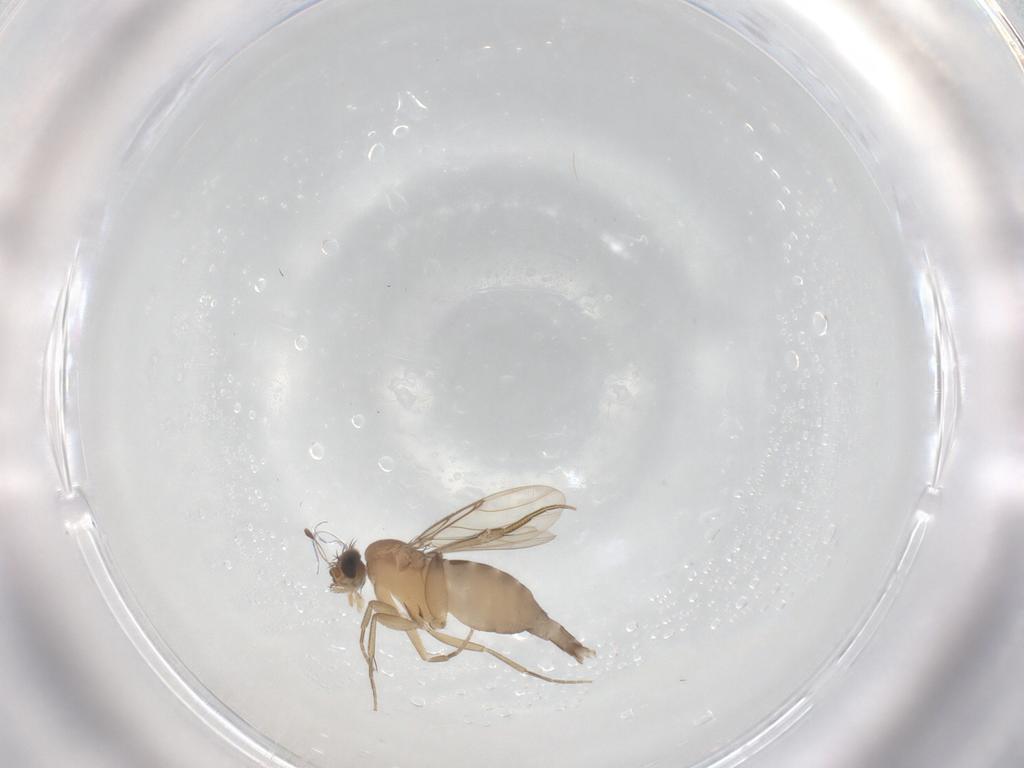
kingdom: Animalia
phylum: Arthropoda
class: Insecta
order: Diptera
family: Phoridae
